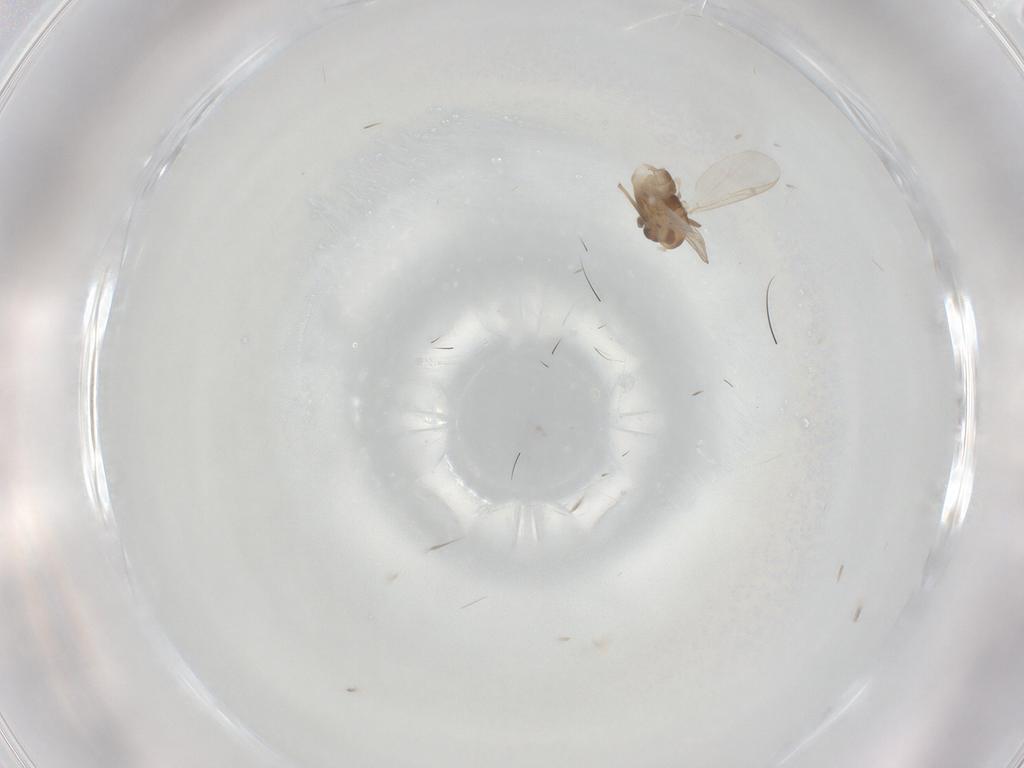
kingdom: Animalia
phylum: Arthropoda
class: Insecta
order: Diptera
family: Chironomidae
